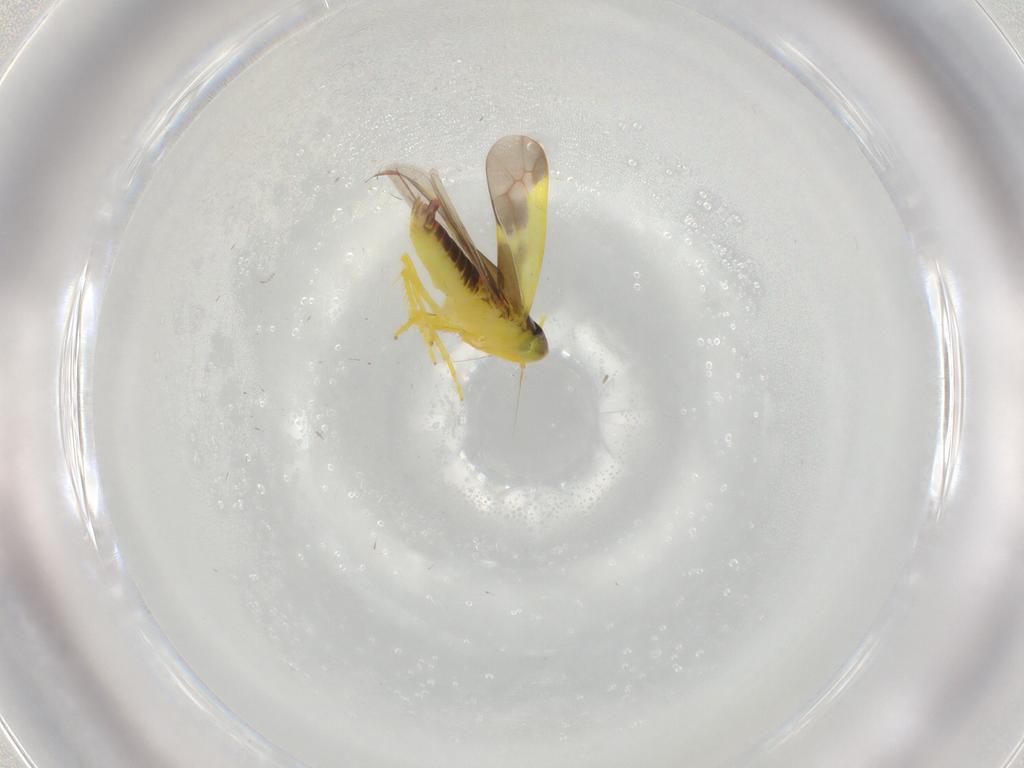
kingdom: Animalia
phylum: Arthropoda
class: Insecta
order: Hemiptera
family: Cicadellidae
